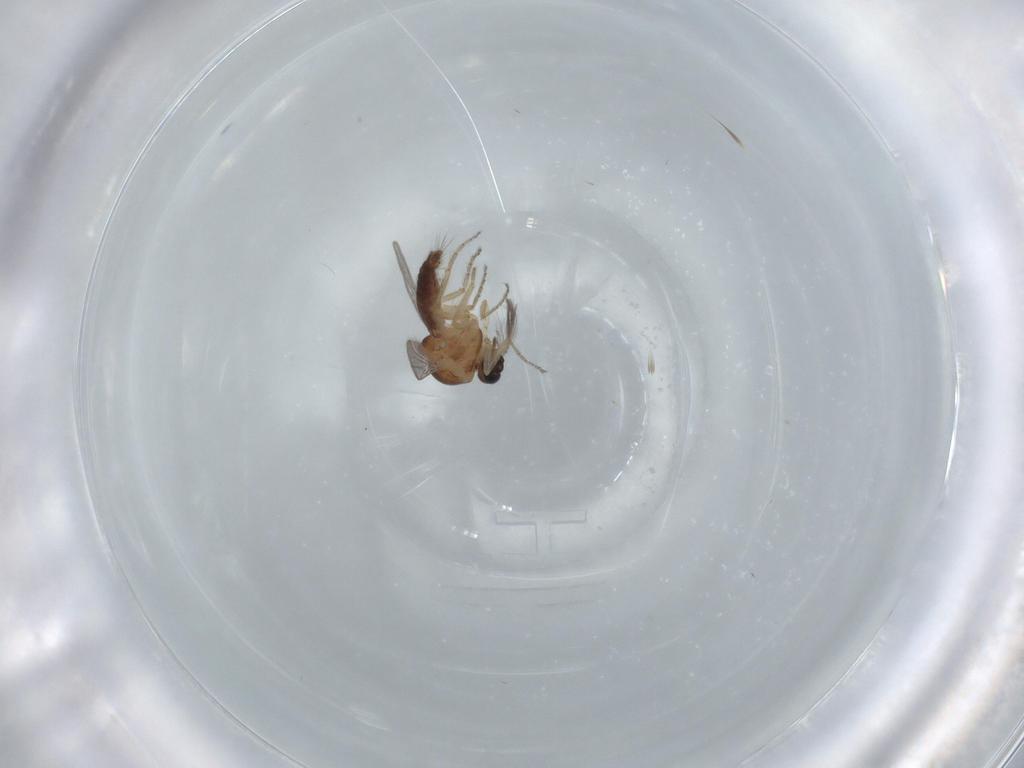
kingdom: Animalia
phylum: Arthropoda
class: Insecta
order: Diptera
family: Ceratopogonidae
